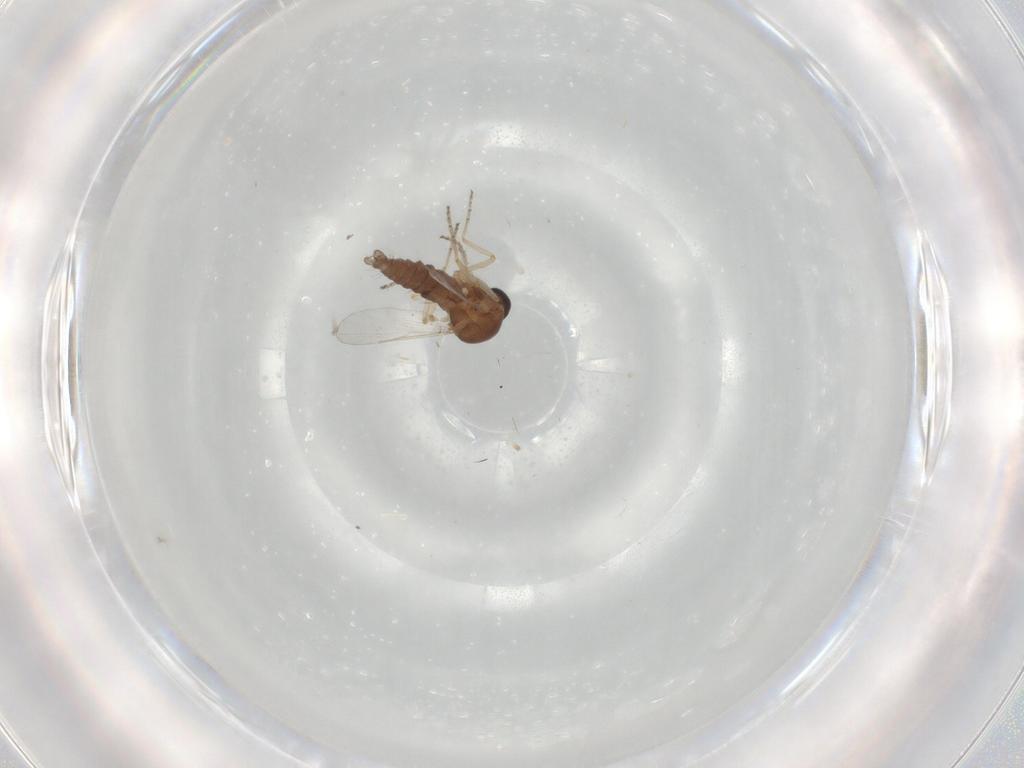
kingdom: Animalia
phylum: Arthropoda
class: Insecta
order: Diptera
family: Ceratopogonidae
